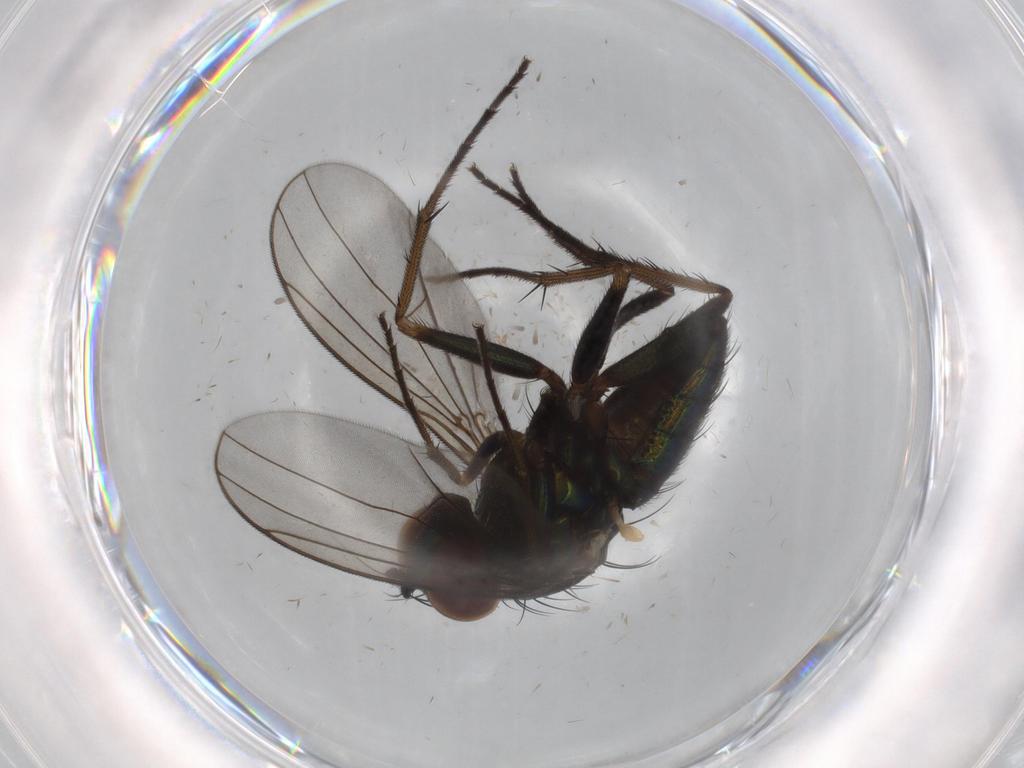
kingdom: Animalia
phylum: Arthropoda
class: Insecta
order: Diptera
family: Dolichopodidae
